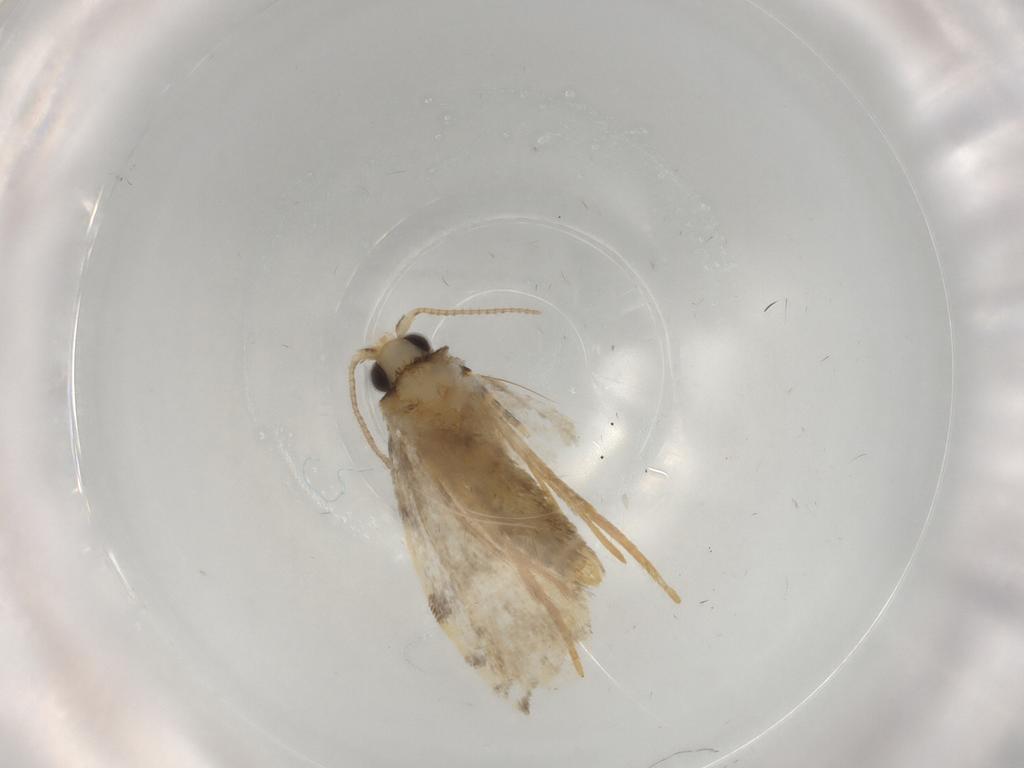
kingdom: Animalia
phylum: Arthropoda
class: Insecta
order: Lepidoptera
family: Psychidae
